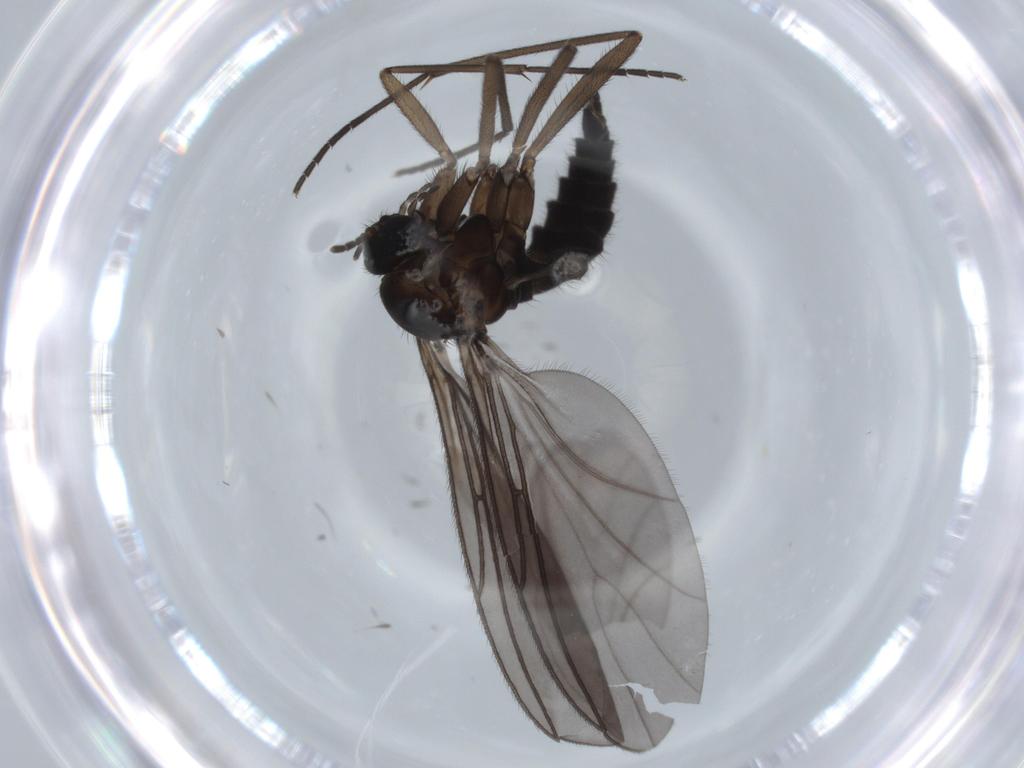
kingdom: Animalia
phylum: Arthropoda
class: Insecta
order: Diptera
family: Sciaridae
